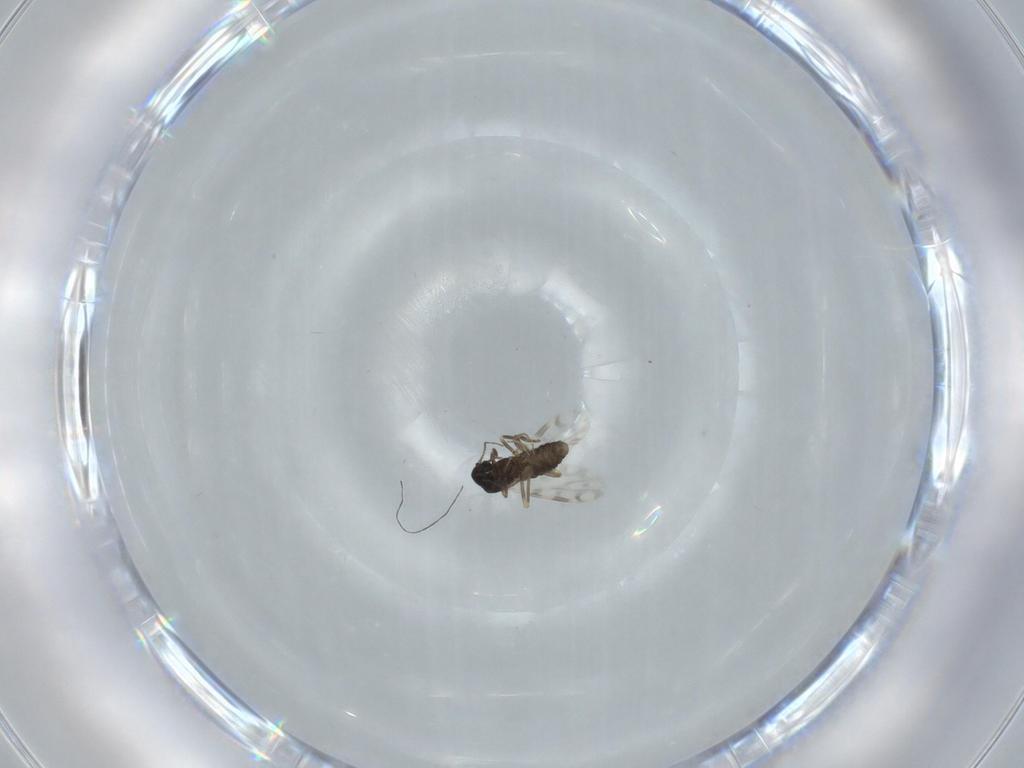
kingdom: Animalia
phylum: Arthropoda
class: Insecta
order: Diptera
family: Ceratopogonidae
